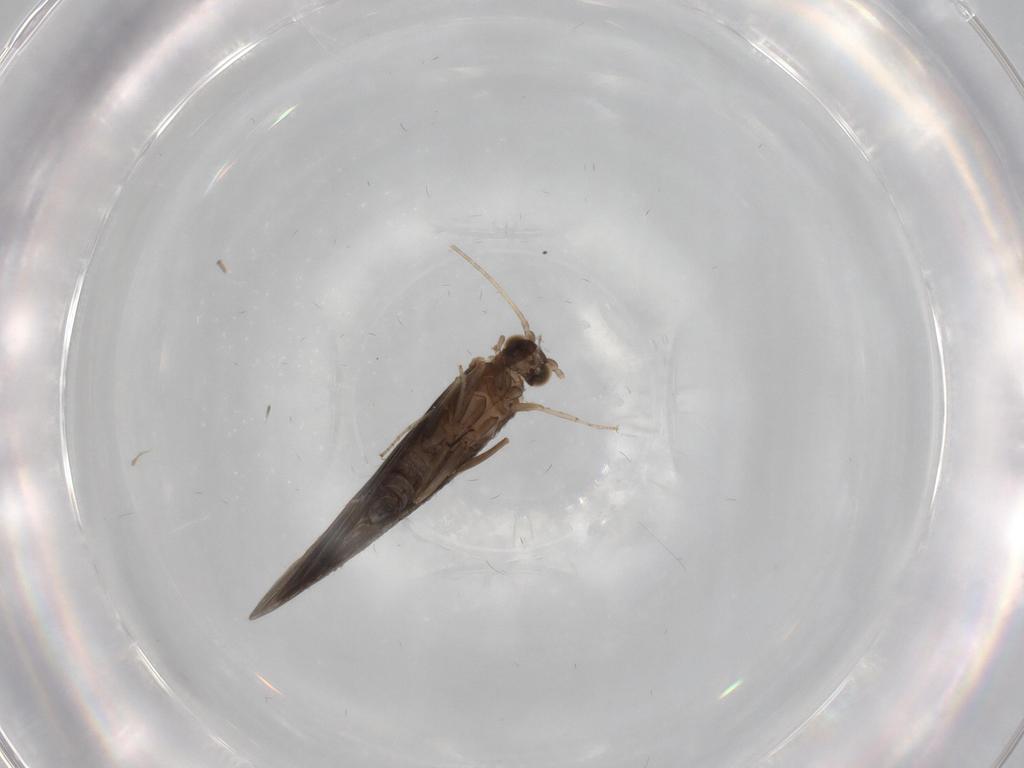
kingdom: Animalia
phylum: Arthropoda
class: Insecta
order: Trichoptera
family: Glossosomatidae
